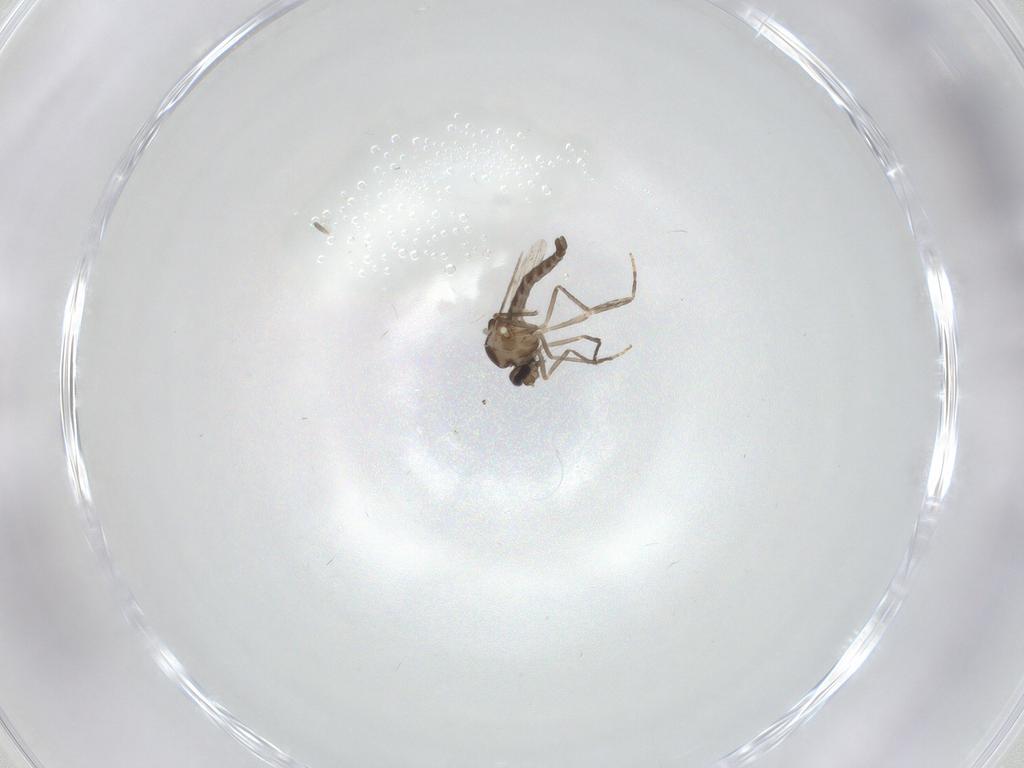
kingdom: Animalia
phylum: Arthropoda
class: Insecta
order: Diptera
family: Ceratopogonidae
